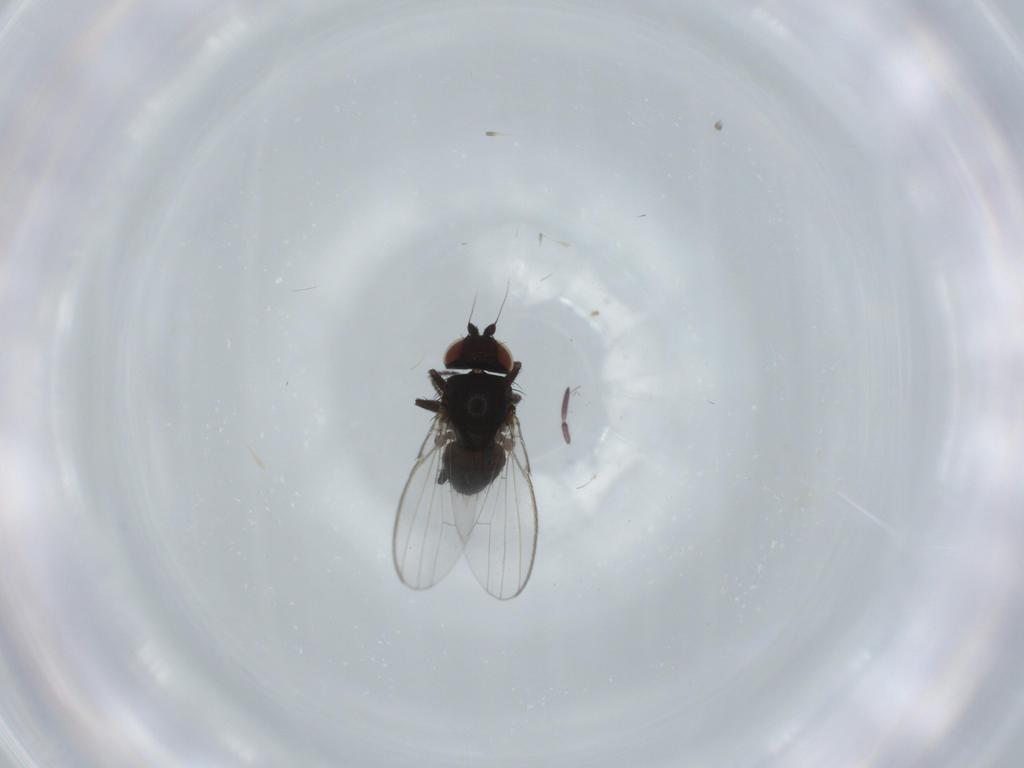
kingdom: Animalia
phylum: Arthropoda
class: Insecta
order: Diptera
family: Milichiidae
